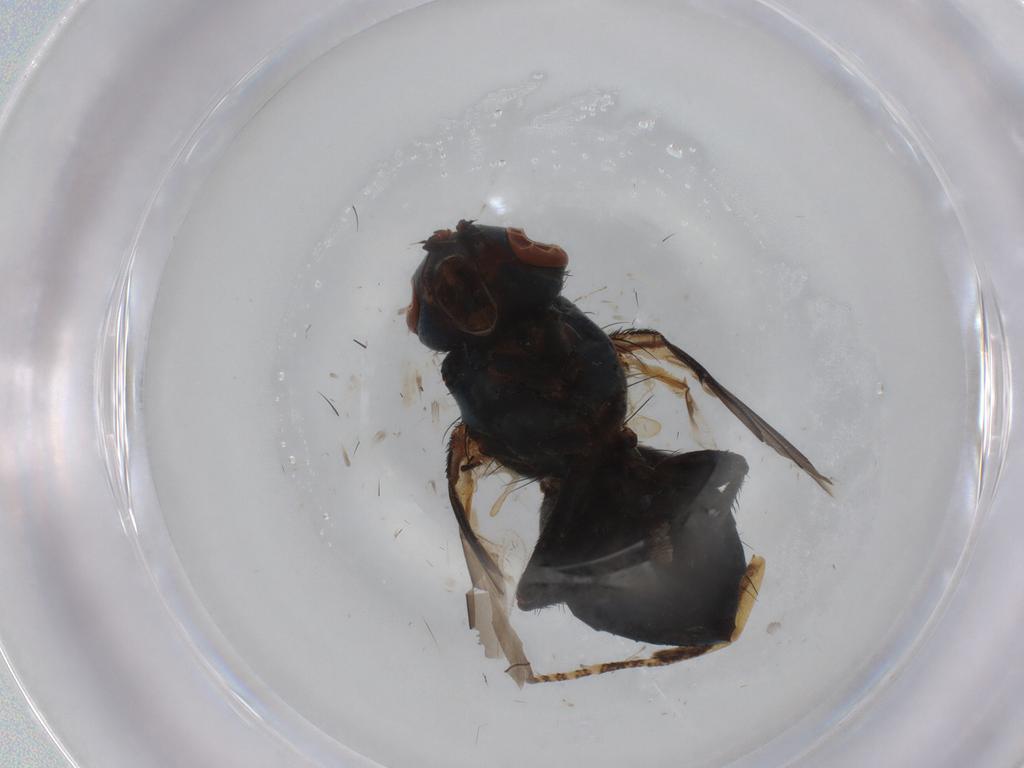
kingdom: Animalia
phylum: Arthropoda
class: Insecta
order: Diptera
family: Tachinidae
